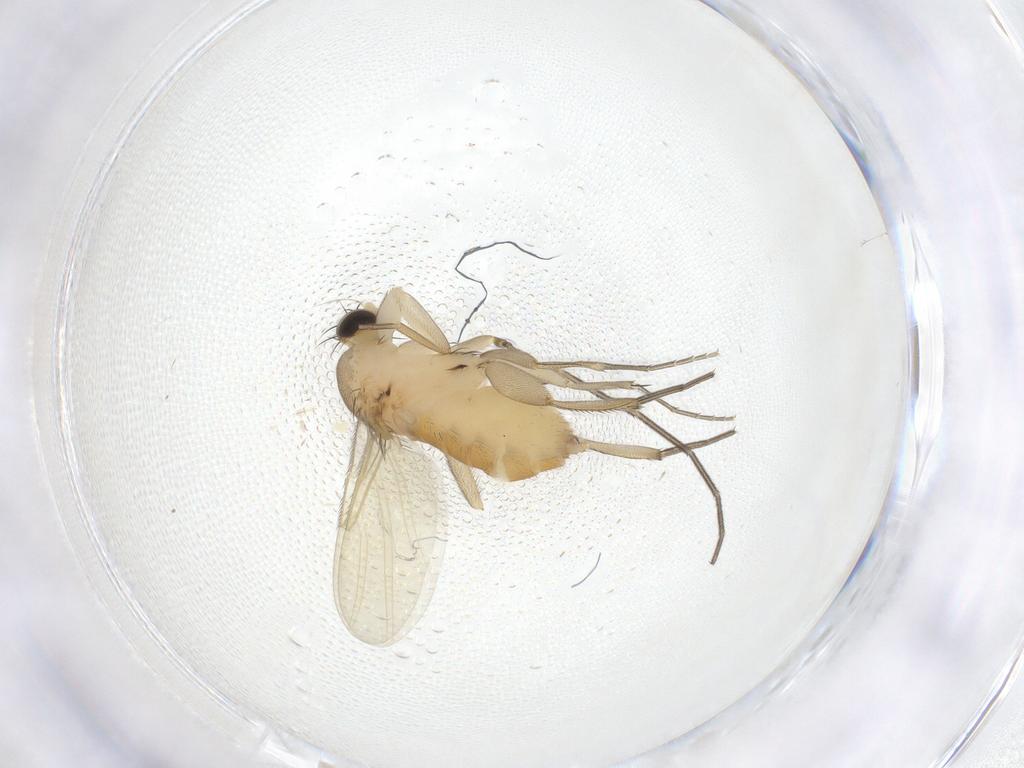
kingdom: Animalia
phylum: Arthropoda
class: Insecta
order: Diptera
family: Phoridae
